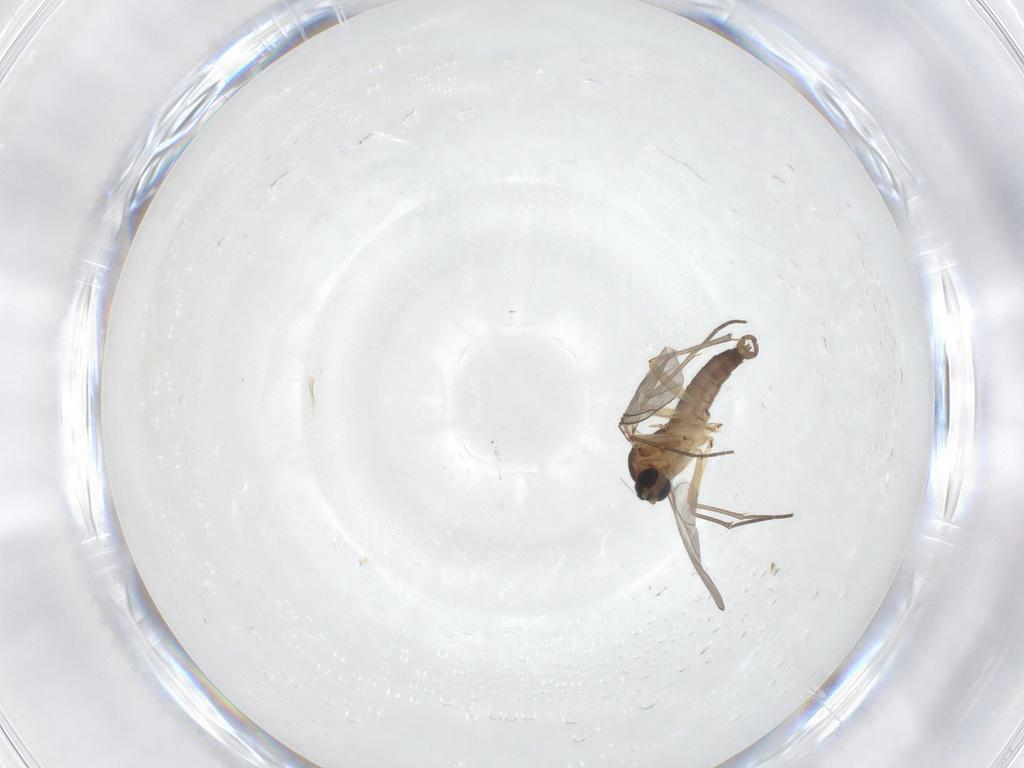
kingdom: Animalia
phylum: Arthropoda
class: Insecta
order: Diptera
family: Sciaridae
